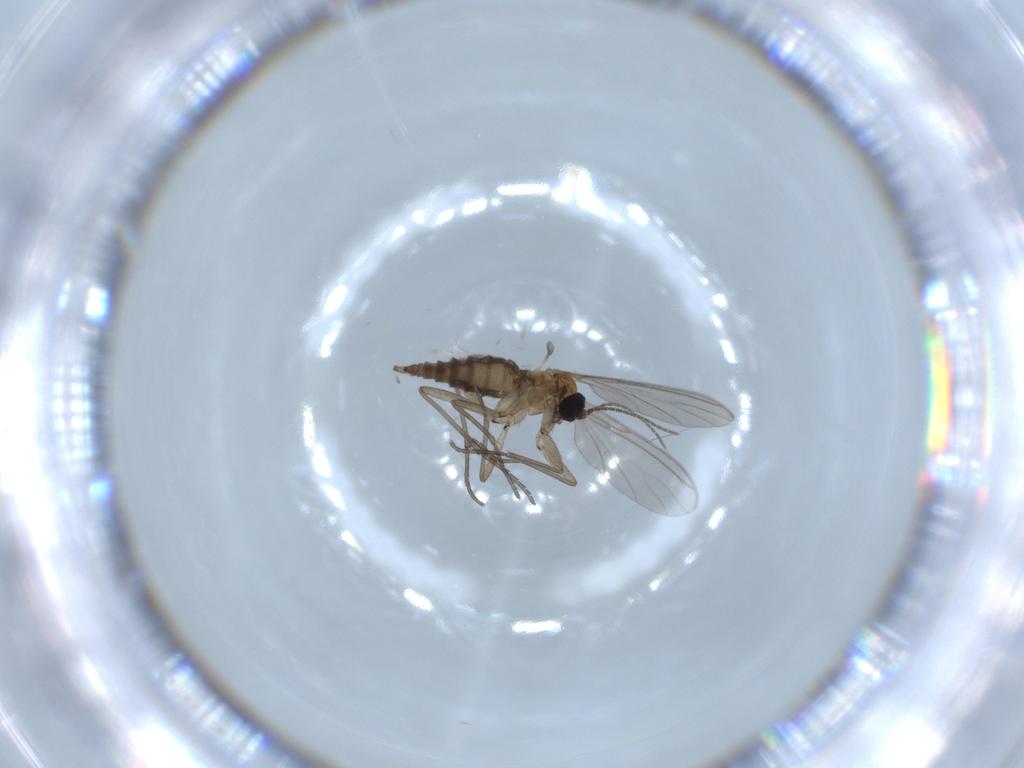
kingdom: Animalia
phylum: Arthropoda
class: Insecta
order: Diptera
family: Sciaridae
